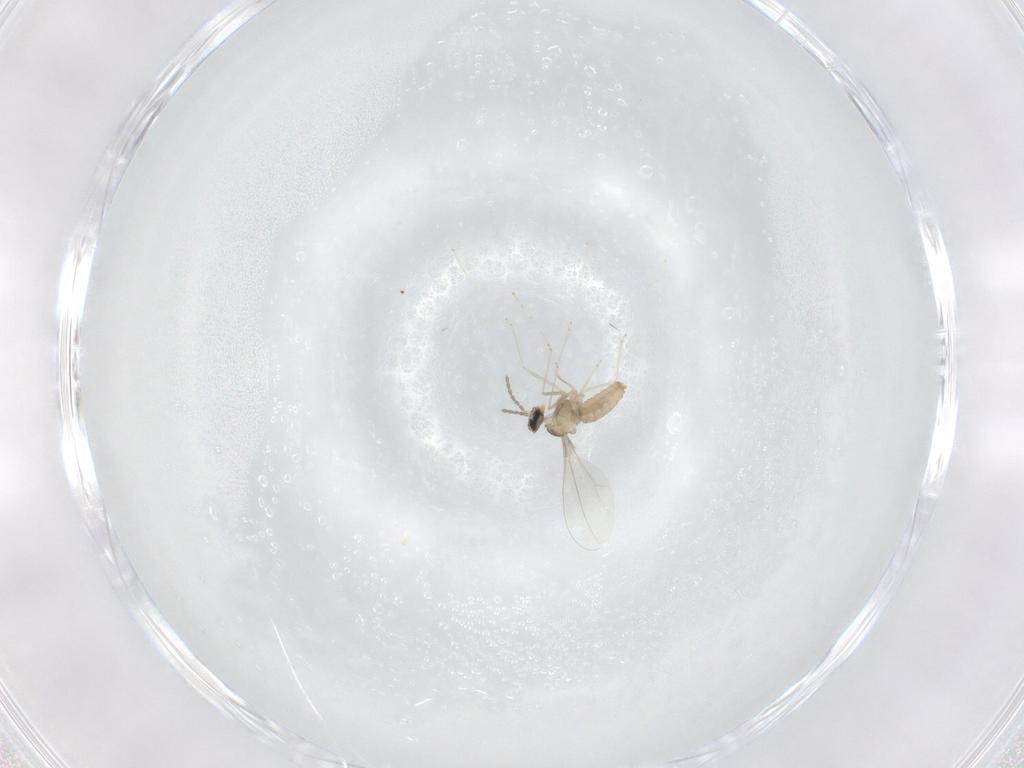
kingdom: Animalia
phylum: Arthropoda
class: Insecta
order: Diptera
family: Cecidomyiidae
